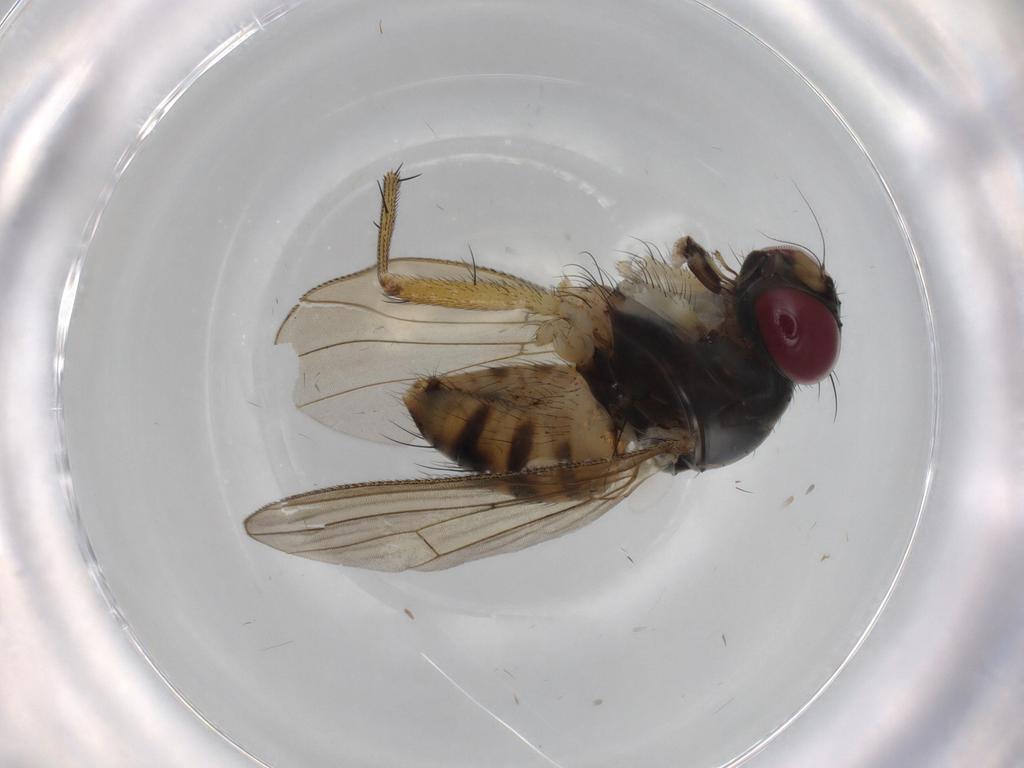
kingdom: Animalia
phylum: Arthropoda
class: Insecta
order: Diptera
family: Muscidae
